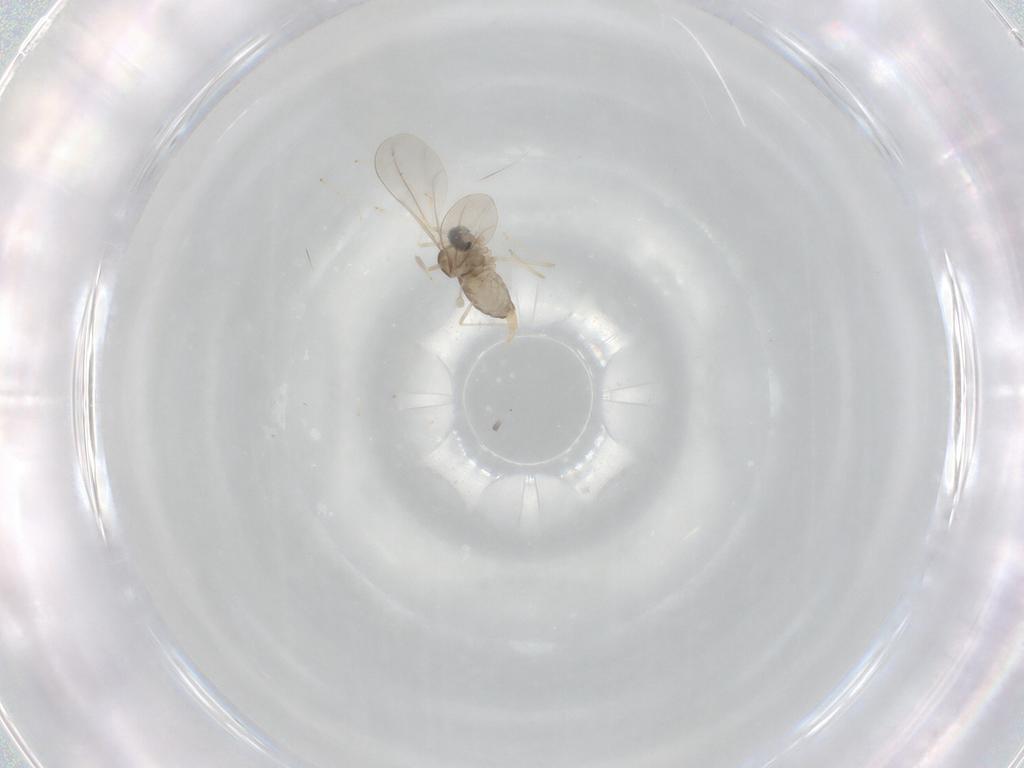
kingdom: Animalia
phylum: Arthropoda
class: Insecta
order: Diptera
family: Cecidomyiidae
